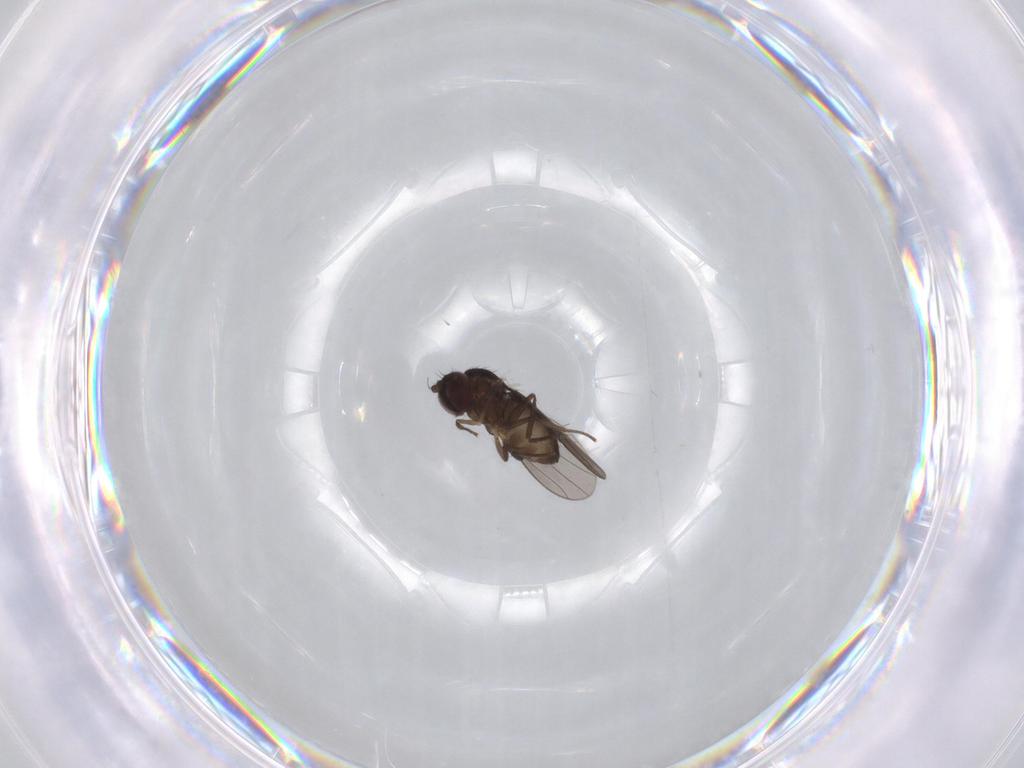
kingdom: Animalia
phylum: Arthropoda
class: Insecta
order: Diptera
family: Dolichopodidae
